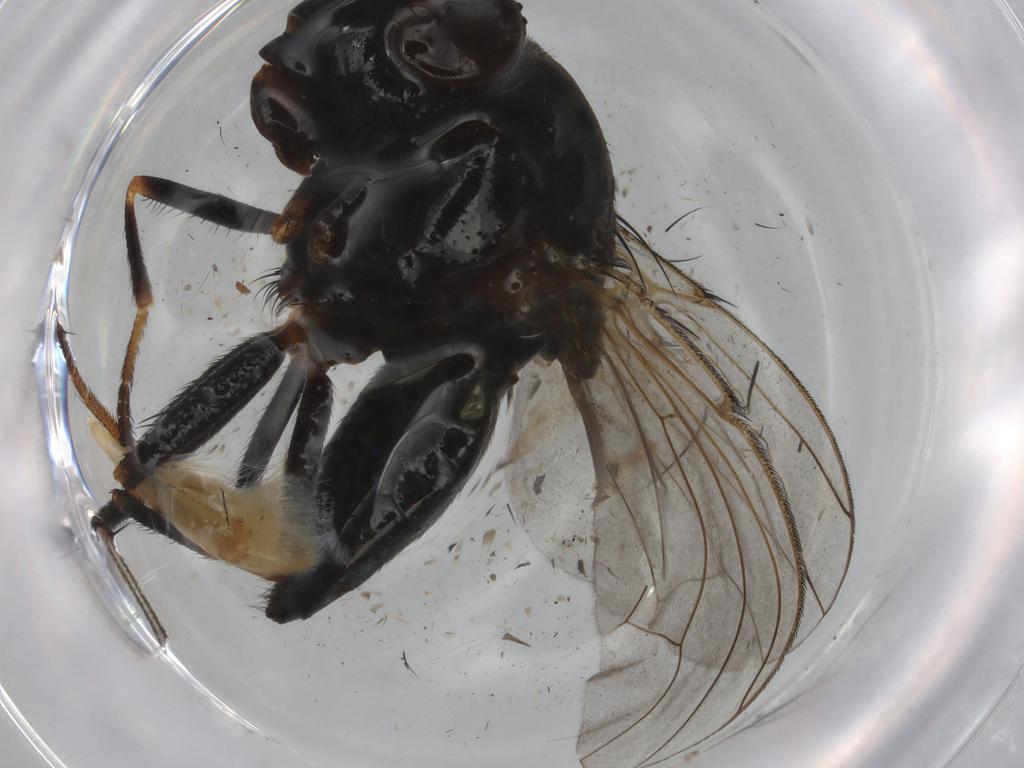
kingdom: Animalia
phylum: Arthropoda
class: Insecta
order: Diptera
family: Chloropidae
